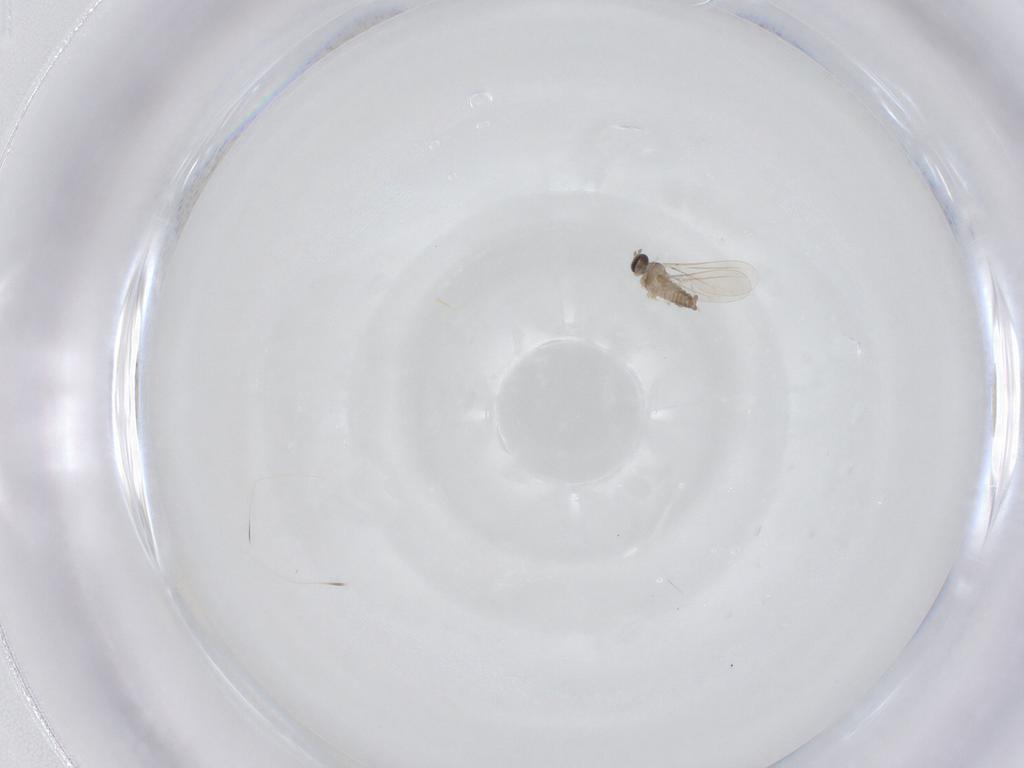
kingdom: Animalia
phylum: Arthropoda
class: Insecta
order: Diptera
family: Cecidomyiidae
